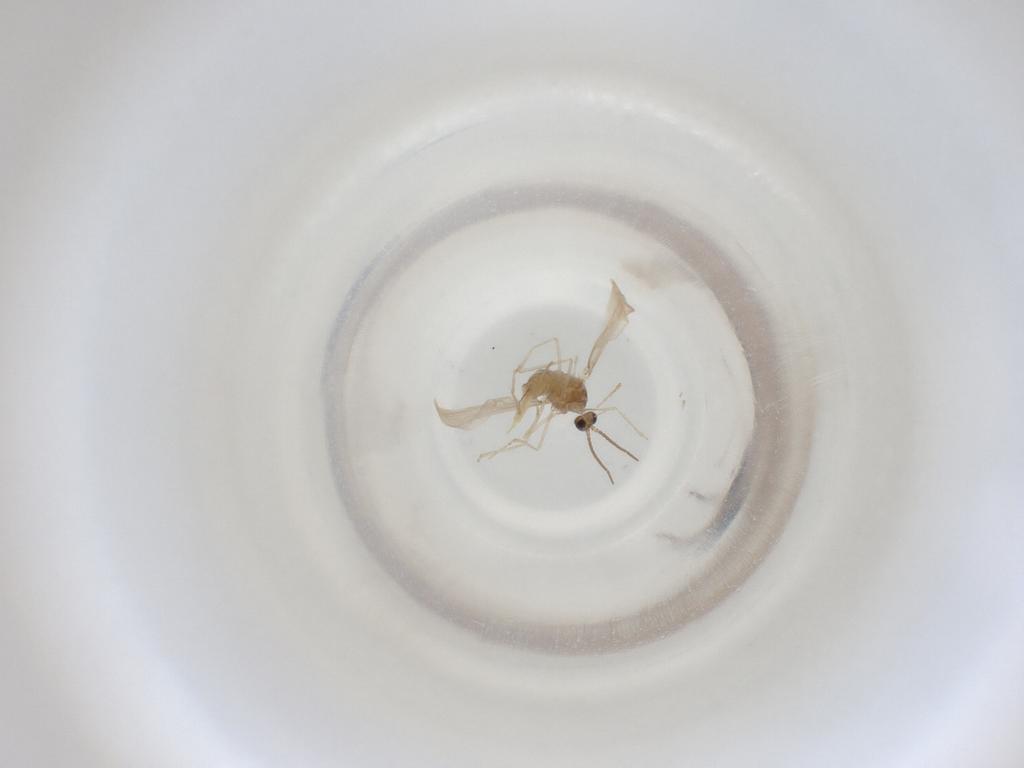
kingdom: Animalia
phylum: Arthropoda
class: Insecta
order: Diptera
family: Cecidomyiidae
